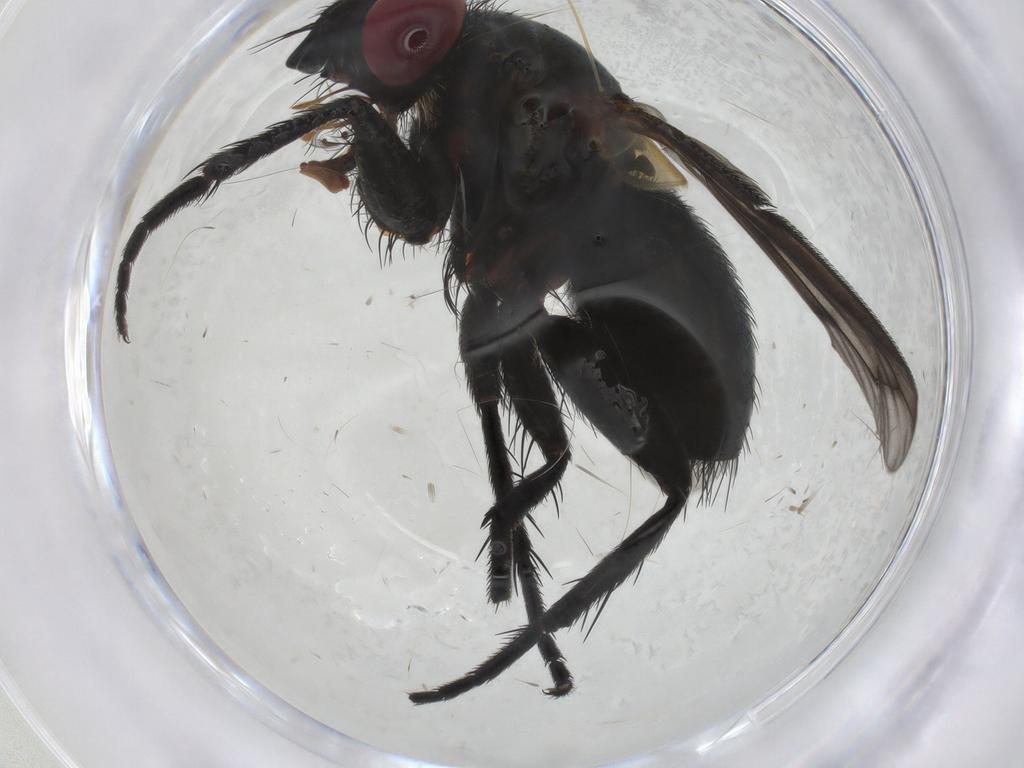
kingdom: Animalia
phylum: Arthropoda
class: Insecta
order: Diptera
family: Tachinidae
